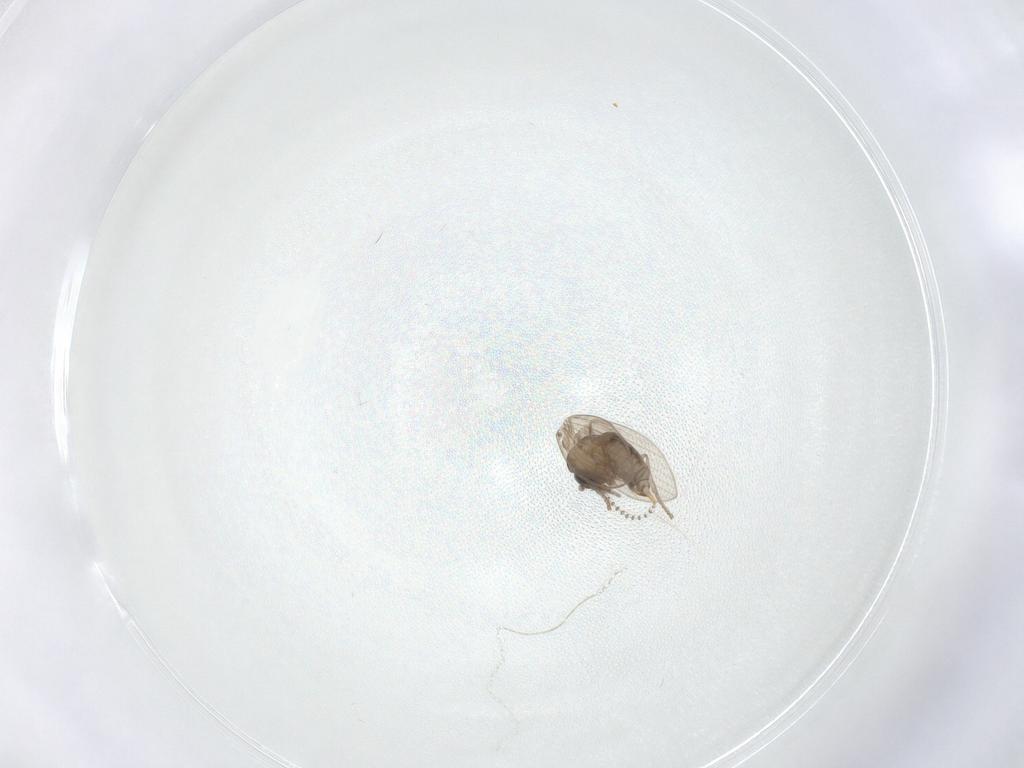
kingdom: Animalia
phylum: Arthropoda
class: Insecta
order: Diptera
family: Psychodidae
